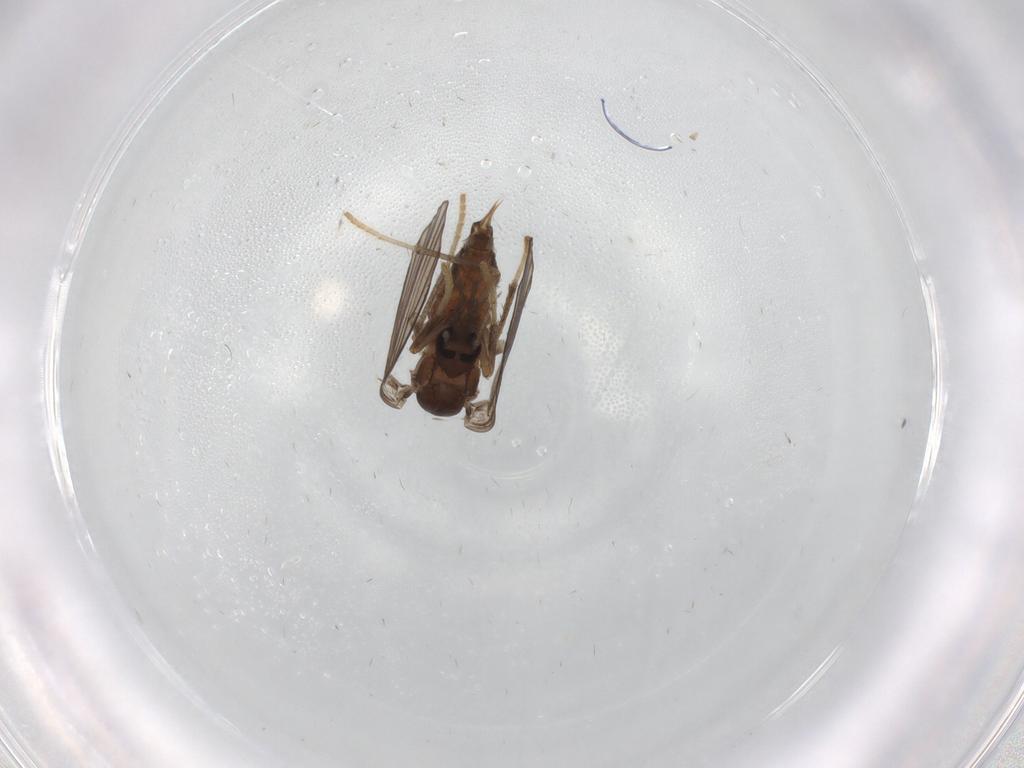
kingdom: Animalia
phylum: Arthropoda
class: Insecta
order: Diptera
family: Psychodidae
